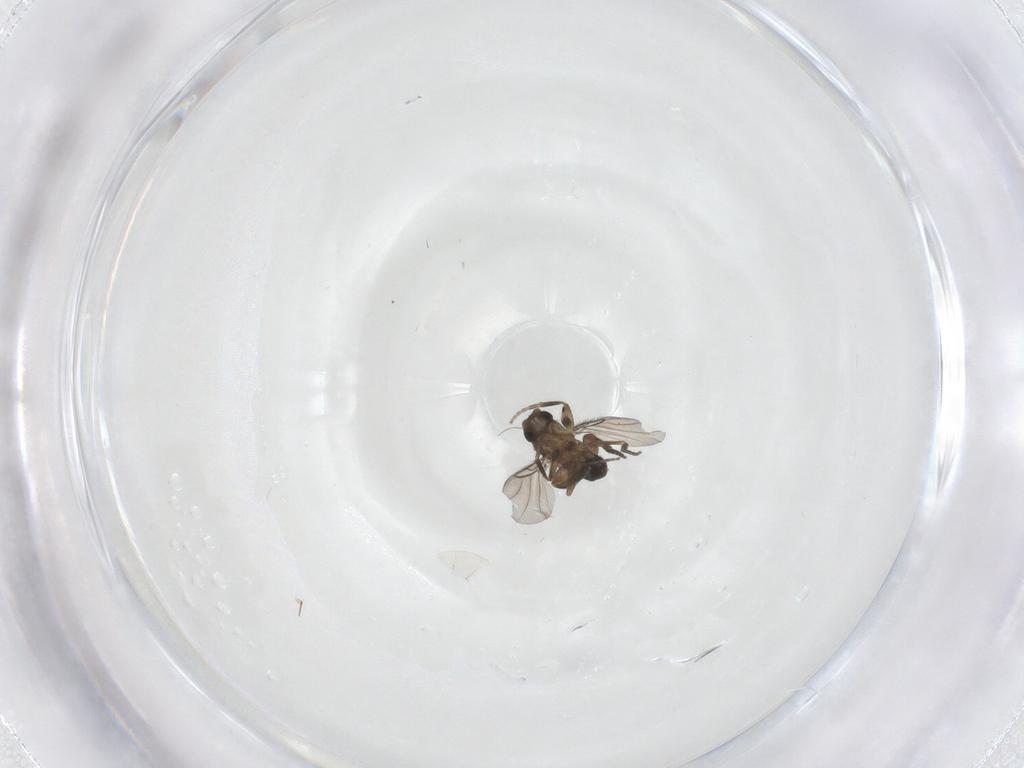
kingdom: Animalia
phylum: Arthropoda
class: Insecta
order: Diptera
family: Phoridae
